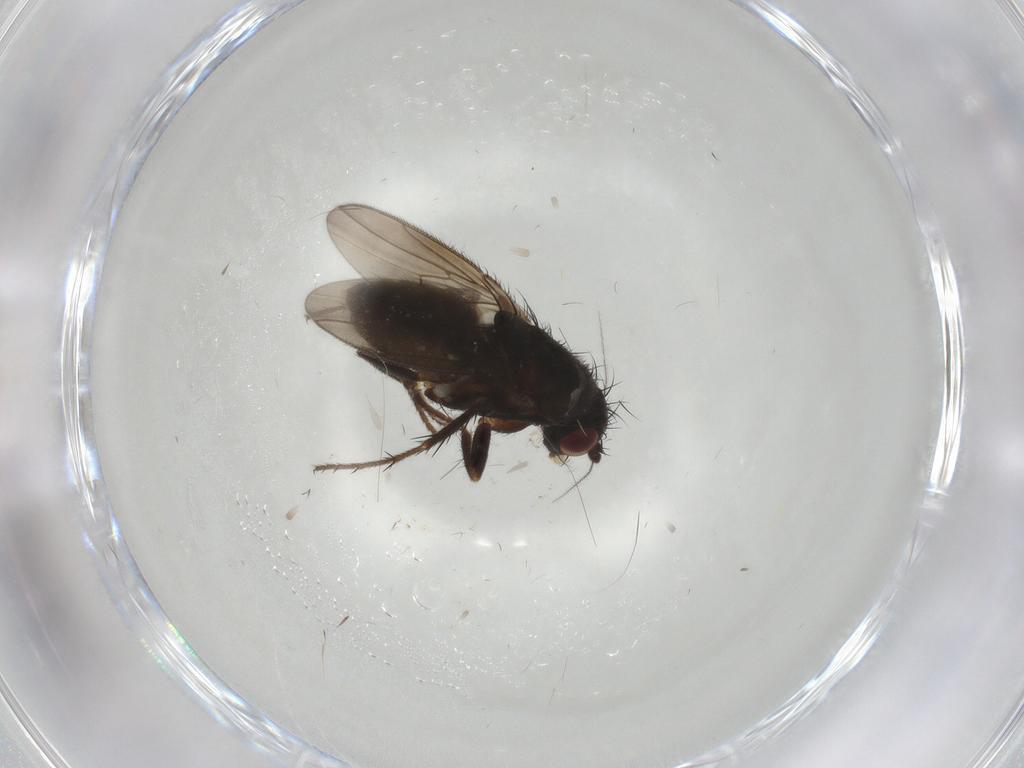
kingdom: Animalia
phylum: Arthropoda
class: Insecta
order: Diptera
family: Sphaeroceridae
